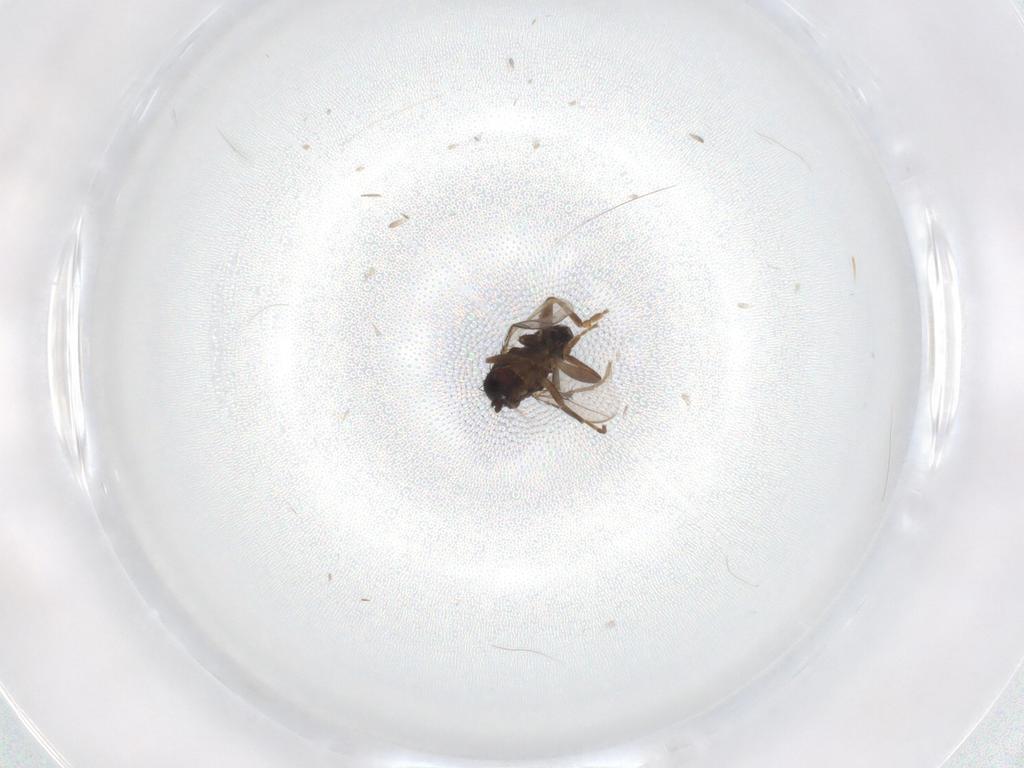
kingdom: Animalia
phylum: Arthropoda
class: Insecta
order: Diptera
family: Sphaeroceridae
